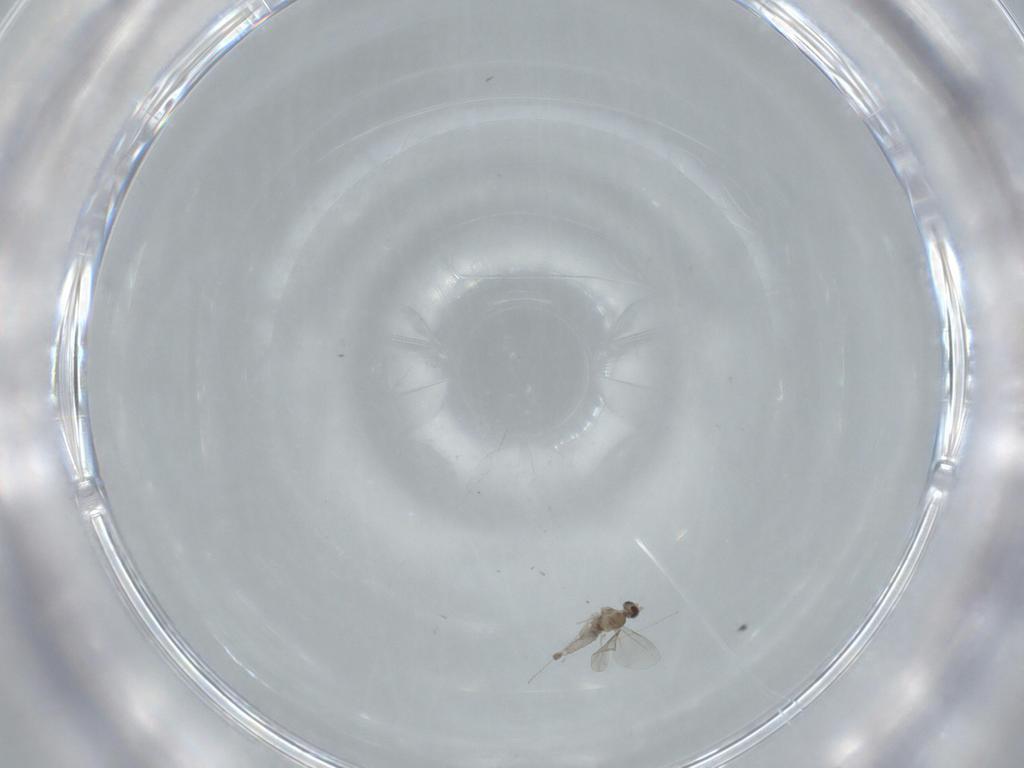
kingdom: Animalia
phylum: Arthropoda
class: Insecta
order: Diptera
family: Cecidomyiidae
